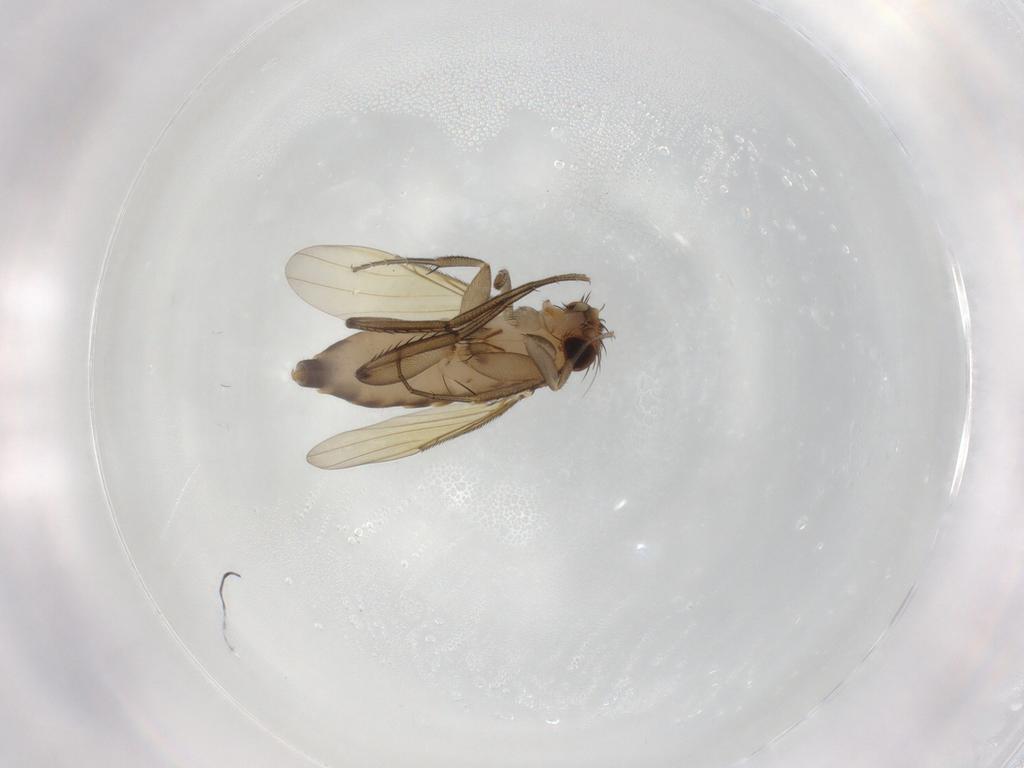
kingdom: Animalia
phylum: Arthropoda
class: Insecta
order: Diptera
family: Phoridae
